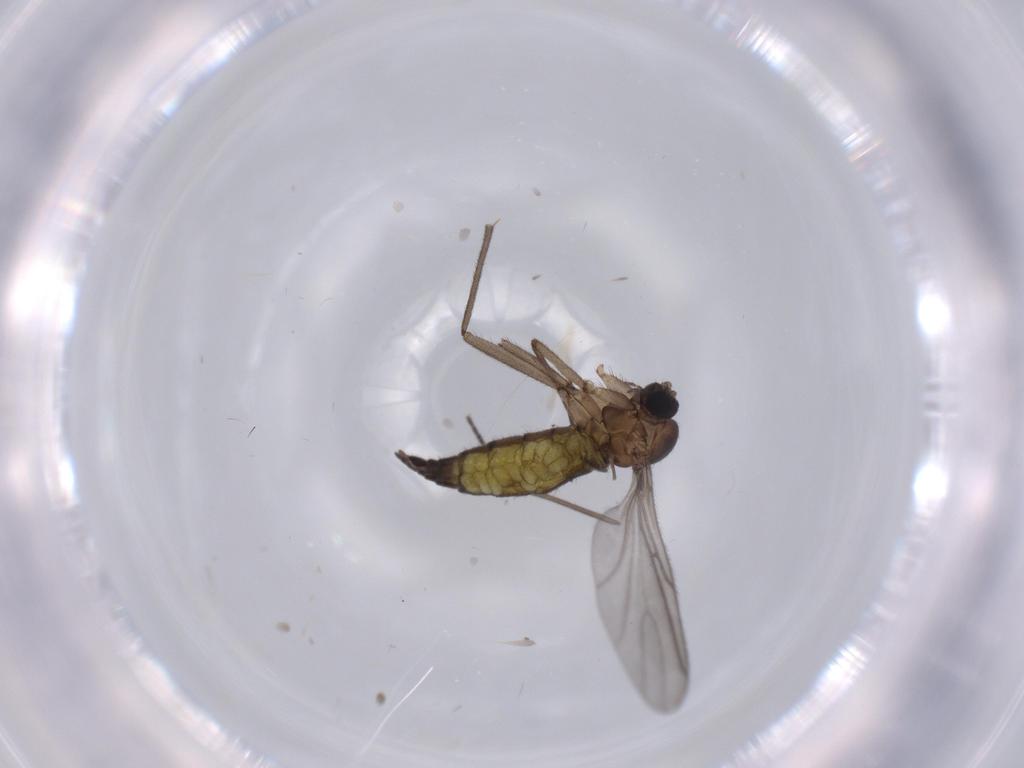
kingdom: Animalia
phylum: Arthropoda
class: Insecta
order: Diptera
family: Sciaridae
